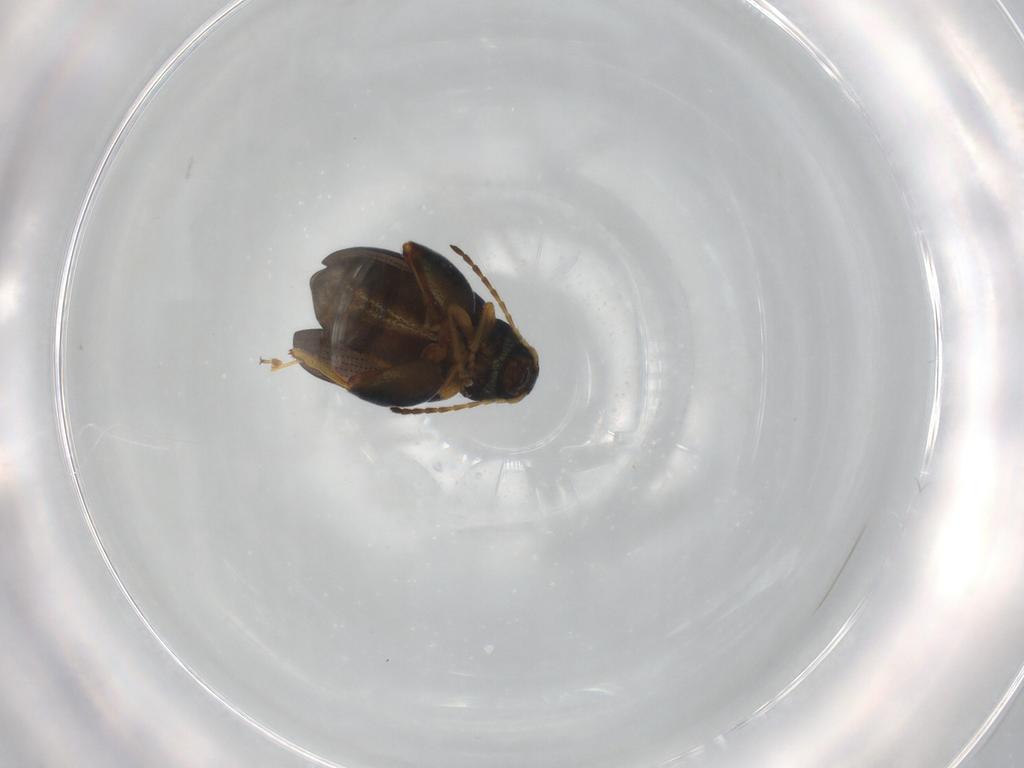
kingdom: Animalia
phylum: Arthropoda
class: Insecta
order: Coleoptera
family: Chrysomelidae
